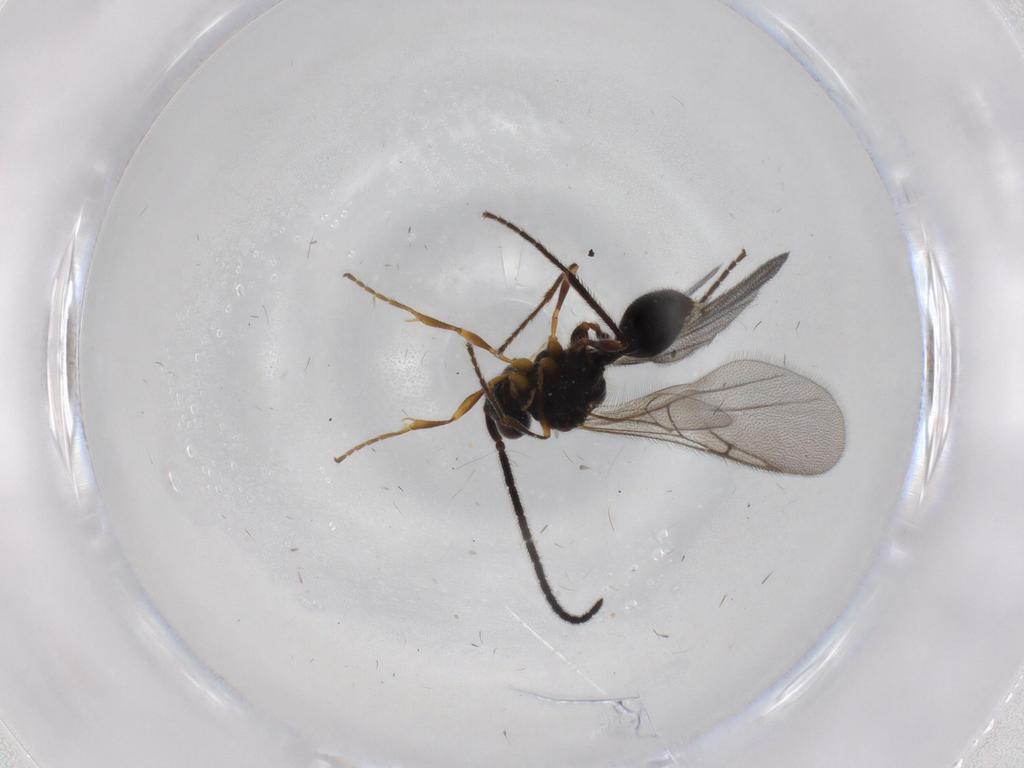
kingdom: Animalia
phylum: Arthropoda
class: Insecta
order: Hymenoptera
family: Diapriidae
